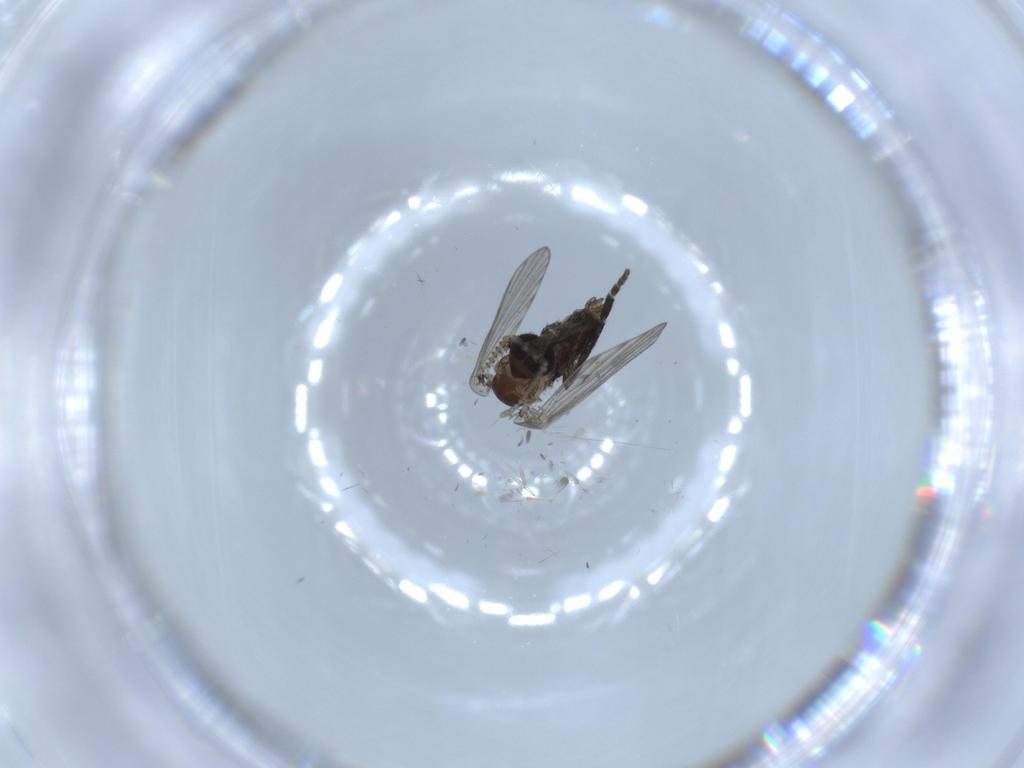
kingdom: Animalia
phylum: Arthropoda
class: Insecta
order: Diptera
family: Psychodidae
